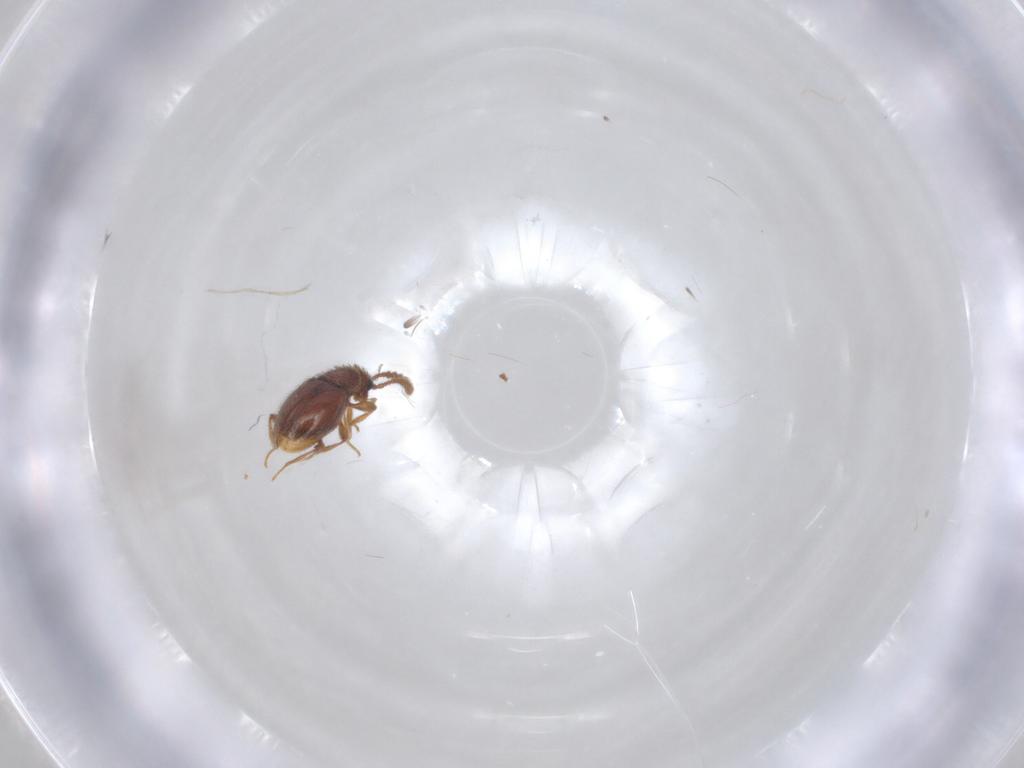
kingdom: Animalia
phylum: Arthropoda
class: Insecta
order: Coleoptera
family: Staphylinidae
